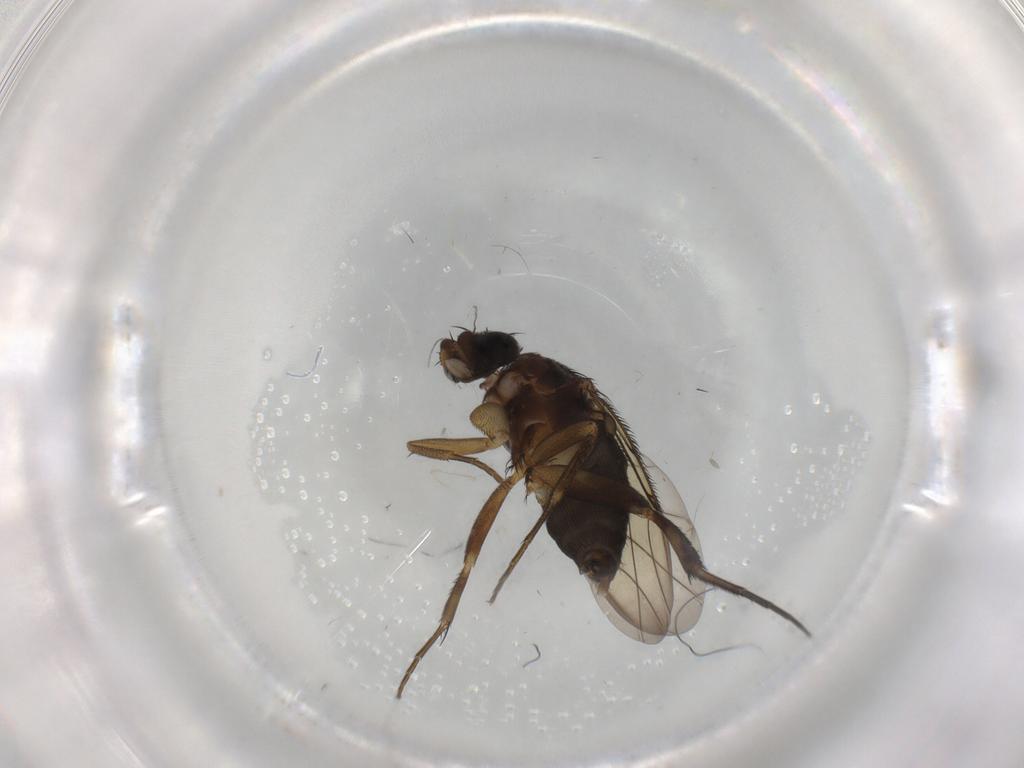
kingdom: Animalia
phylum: Arthropoda
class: Insecta
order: Diptera
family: Phoridae
